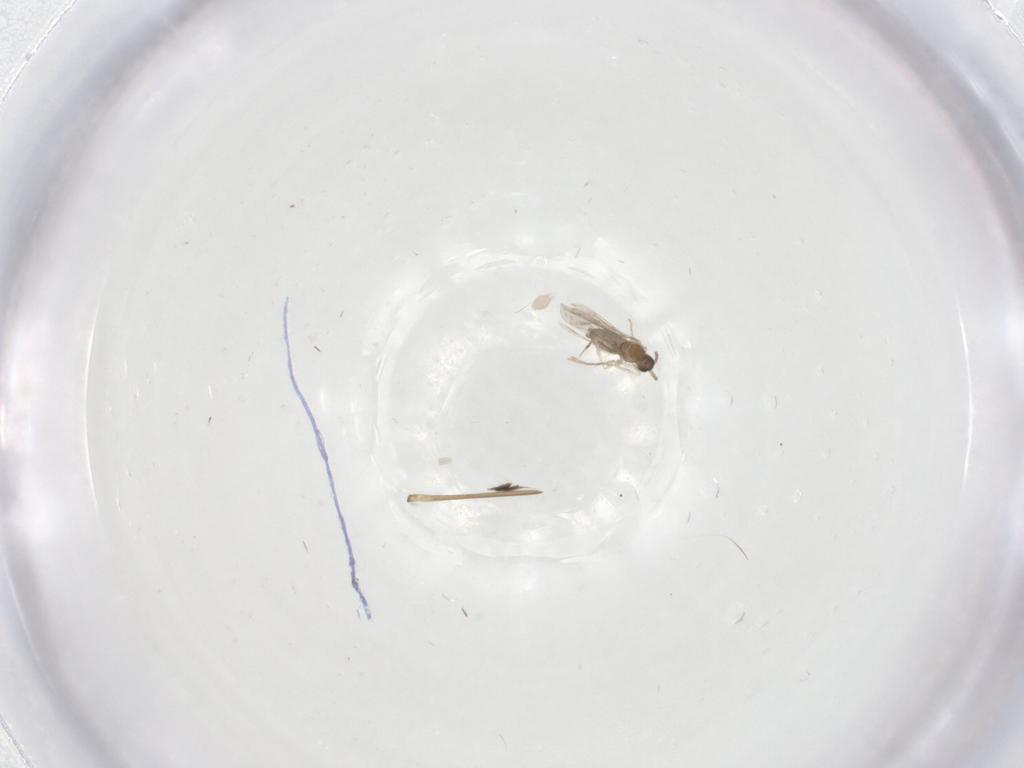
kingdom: Animalia
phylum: Arthropoda
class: Insecta
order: Diptera
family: Cecidomyiidae
